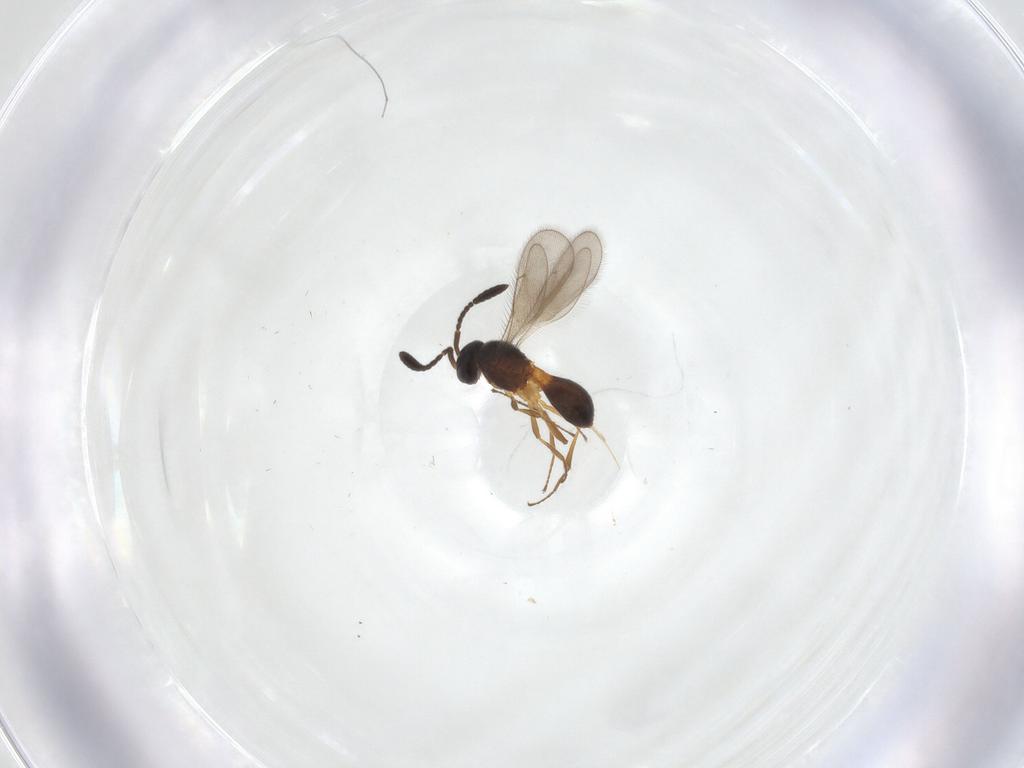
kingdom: Animalia
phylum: Arthropoda
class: Insecta
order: Hymenoptera
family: Scelionidae
